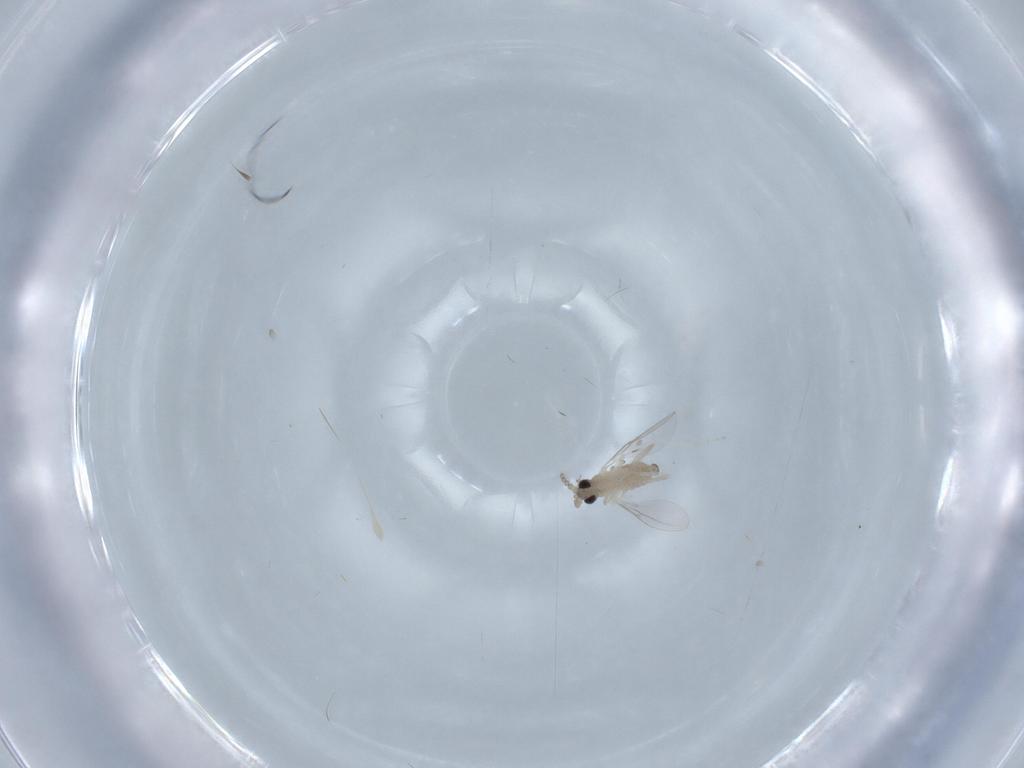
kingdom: Animalia
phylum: Arthropoda
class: Insecta
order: Diptera
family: Cecidomyiidae
